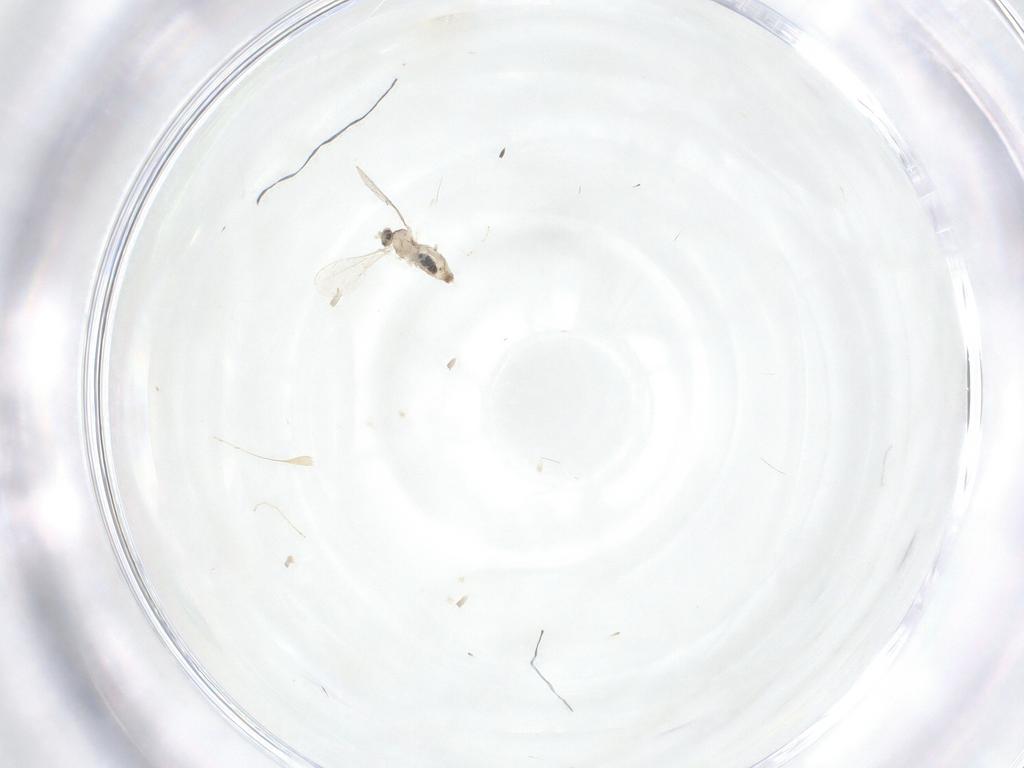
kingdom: Animalia
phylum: Arthropoda
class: Insecta
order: Diptera
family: Cecidomyiidae
